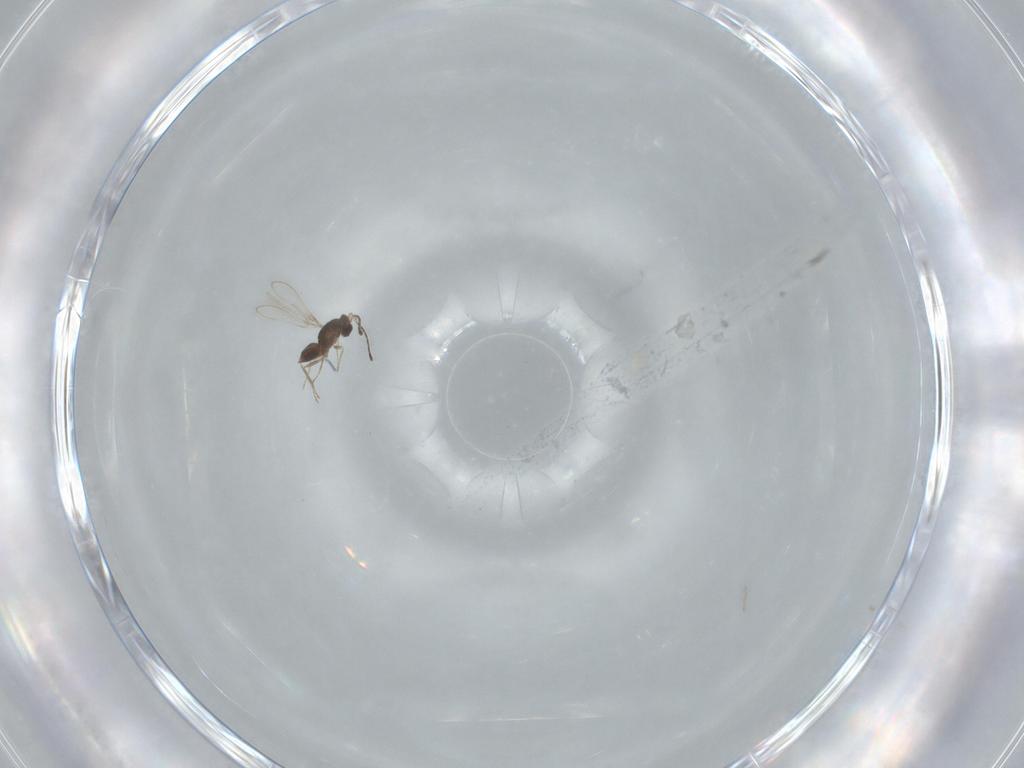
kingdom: Animalia
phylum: Arthropoda
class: Insecta
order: Hymenoptera
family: Mymaridae
